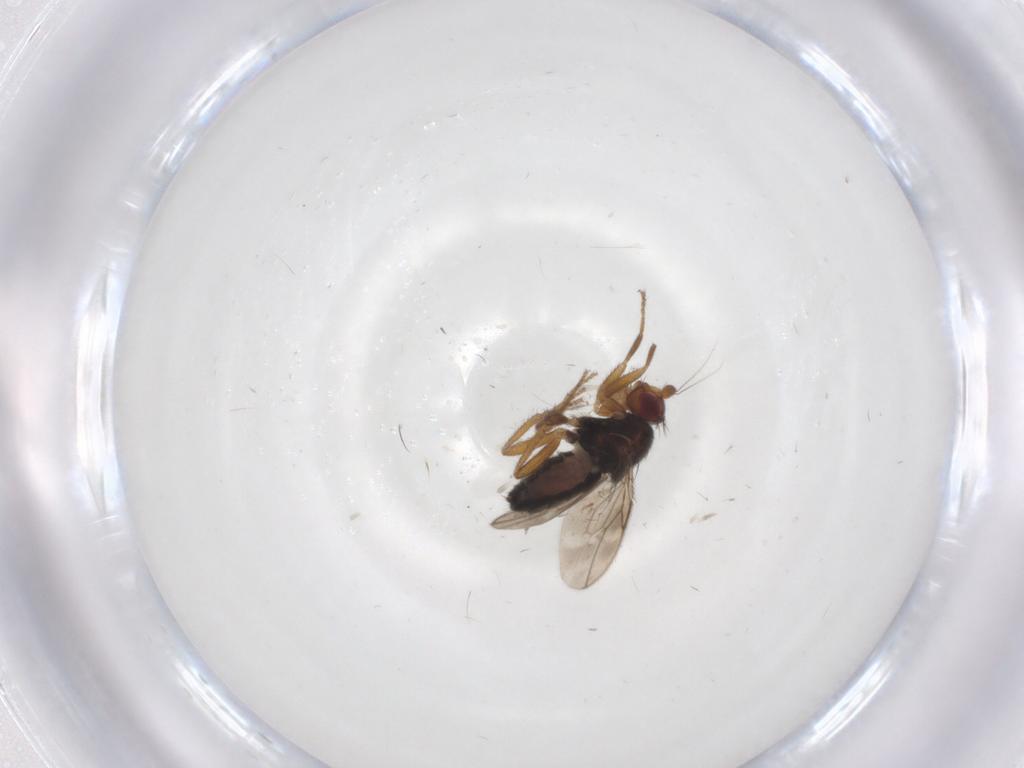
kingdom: Animalia
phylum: Arthropoda
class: Insecta
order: Diptera
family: Sphaeroceridae
